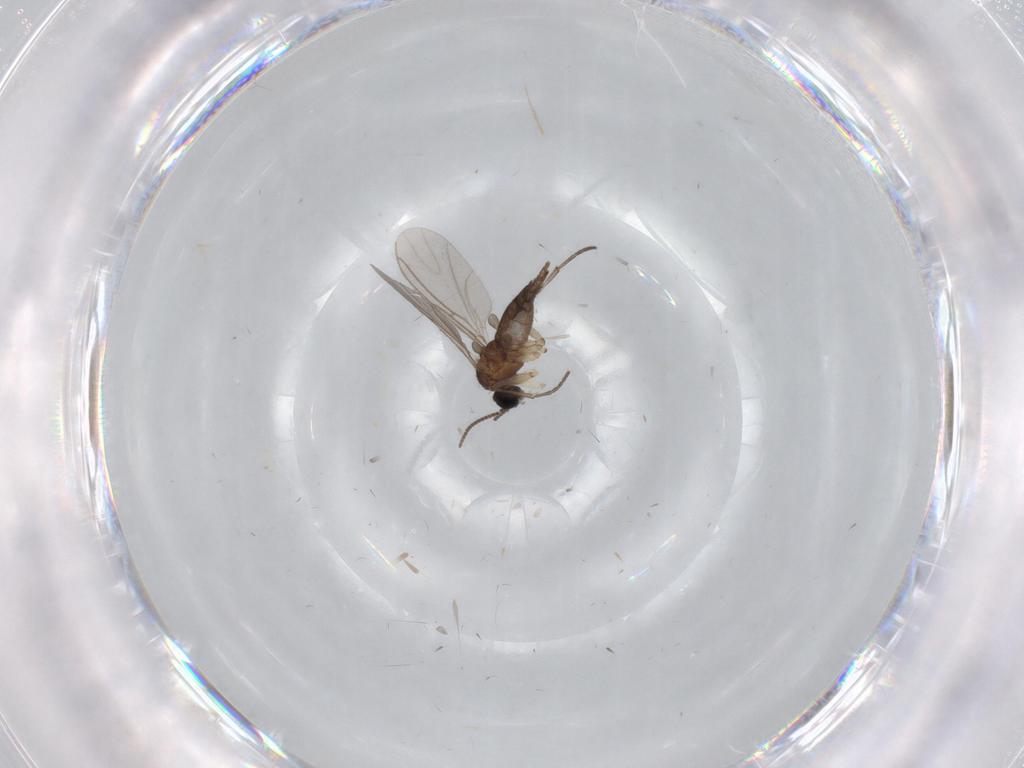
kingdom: Animalia
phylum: Arthropoda
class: Insecta
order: Diptera
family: Sciaridae
